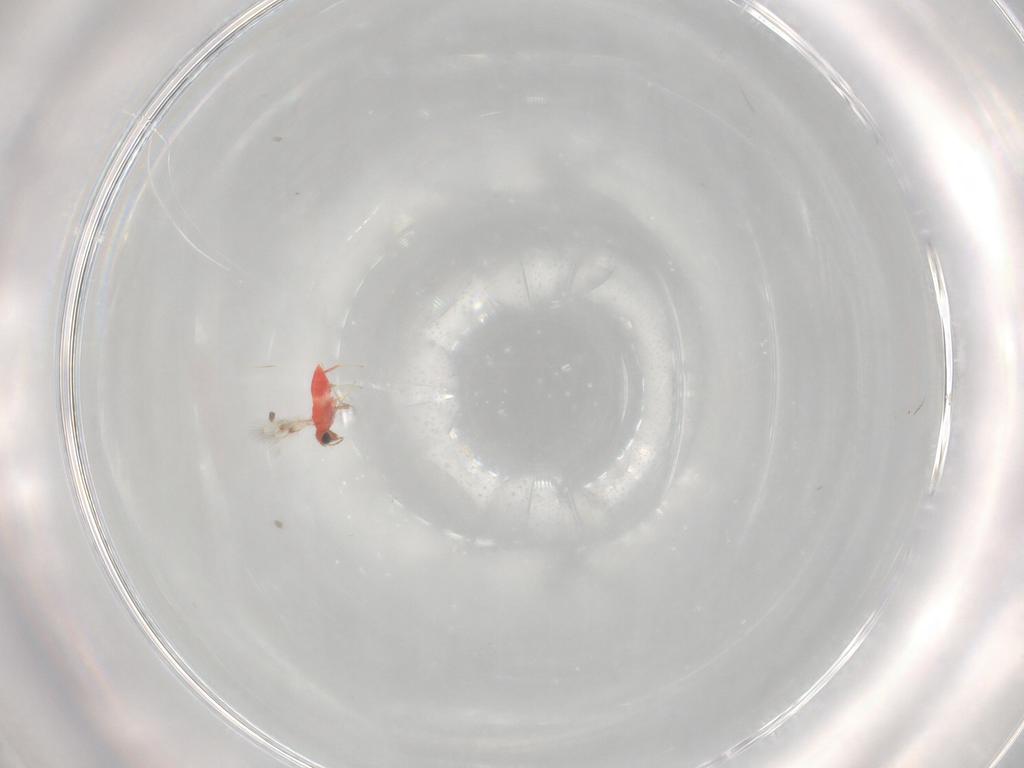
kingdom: Animalia
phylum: Arthropoda
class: Insecta
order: Hymenoptera
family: Trichogrammatidae
